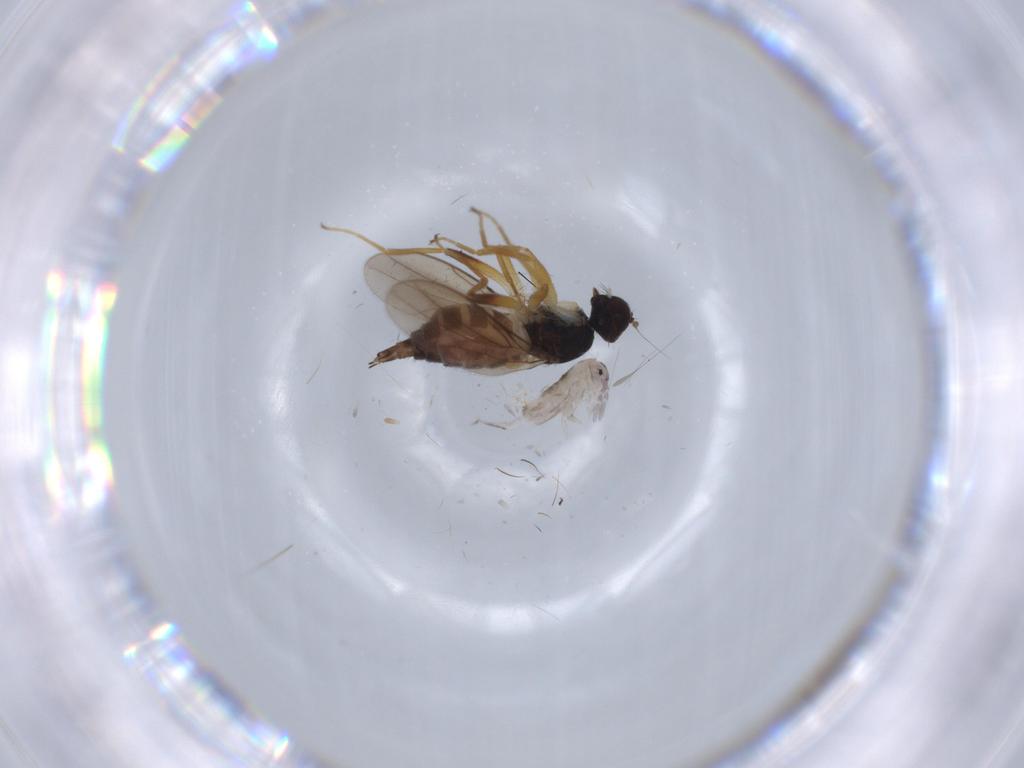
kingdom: Animalia
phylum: Arthropoda
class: Insecta
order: Diptera
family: Hybotidae
